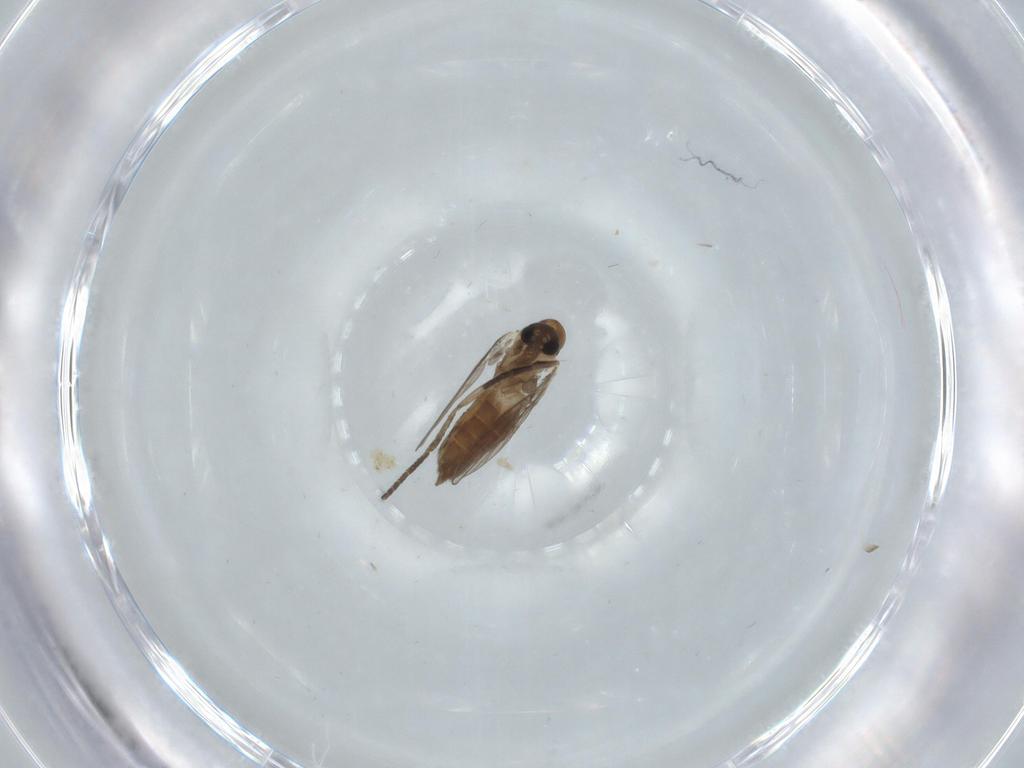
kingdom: Animalia
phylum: Arthropoda
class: Insecta
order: Diptera
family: Psychodidae
